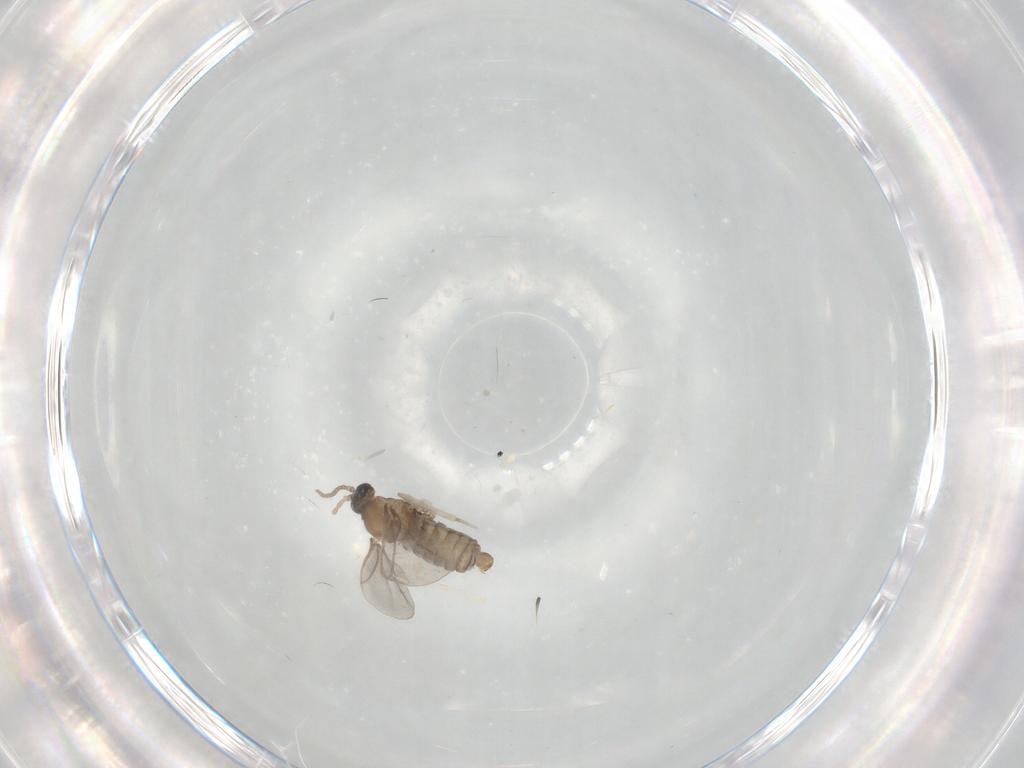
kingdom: Animalia
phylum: Arthropoda
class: Insecta
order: Diptera
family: Cecidomyiidae
